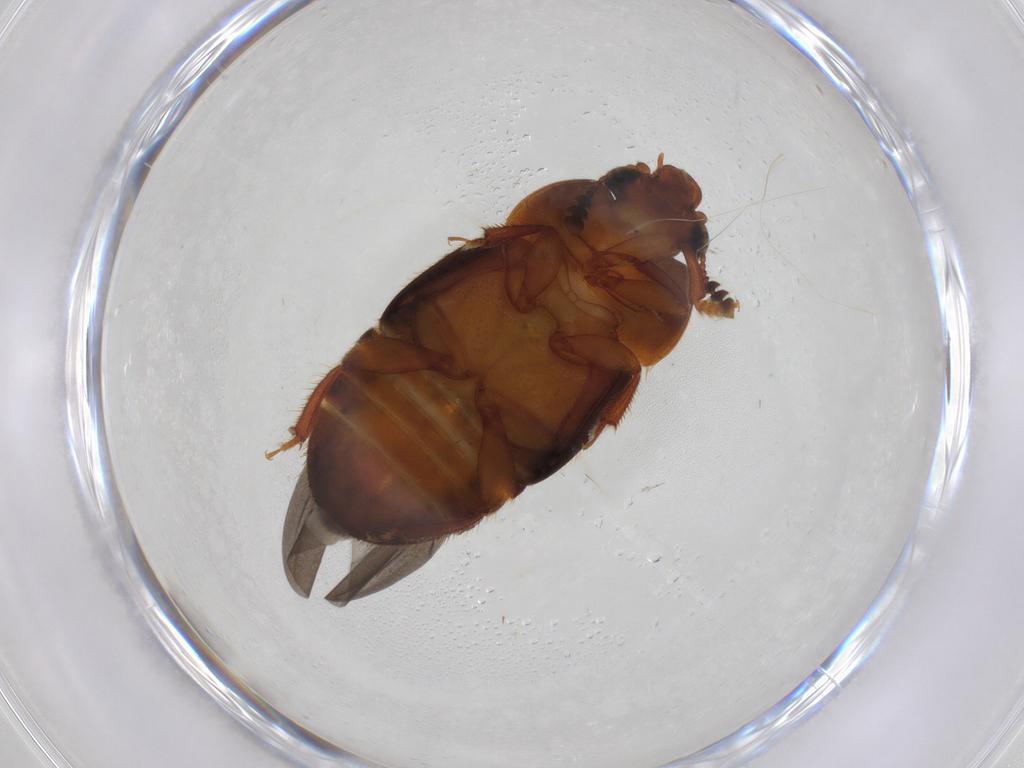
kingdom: Animalia
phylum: Arthropoda
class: Insecta
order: Coleoptera
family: Nitidulidae
